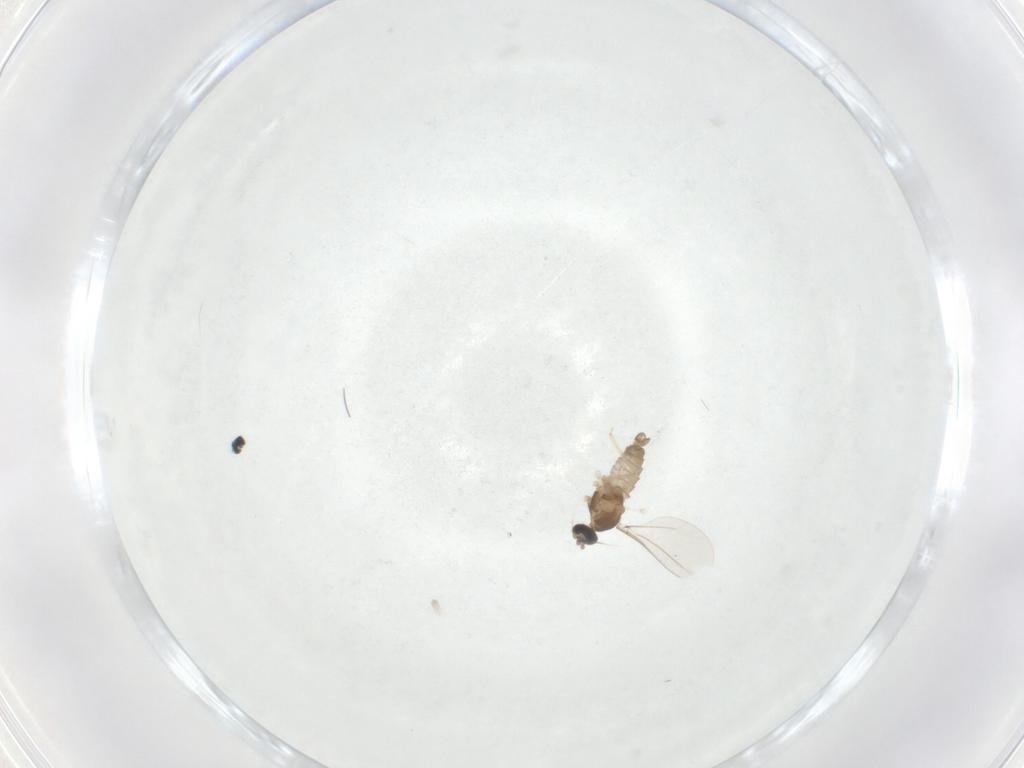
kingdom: Animalia
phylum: Arthropoda
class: Insecta
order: Diptera
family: Cecidomyiidae
